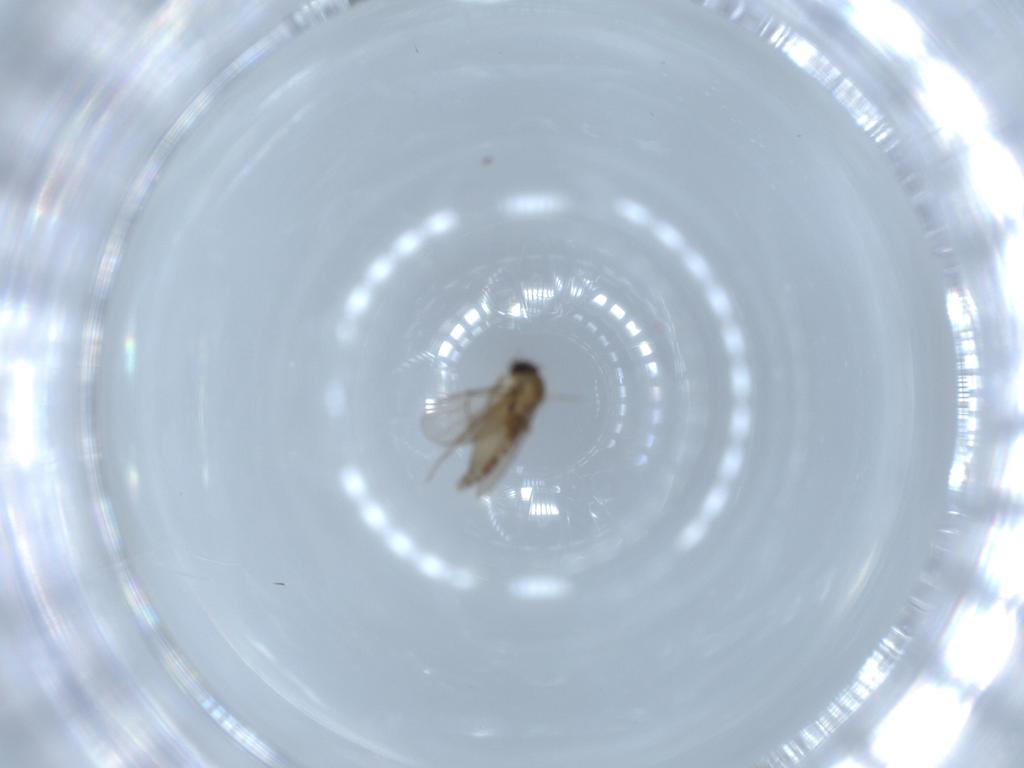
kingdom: Animalia
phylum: Arthropoda
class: Insecta
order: Diptera
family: Phoridae
